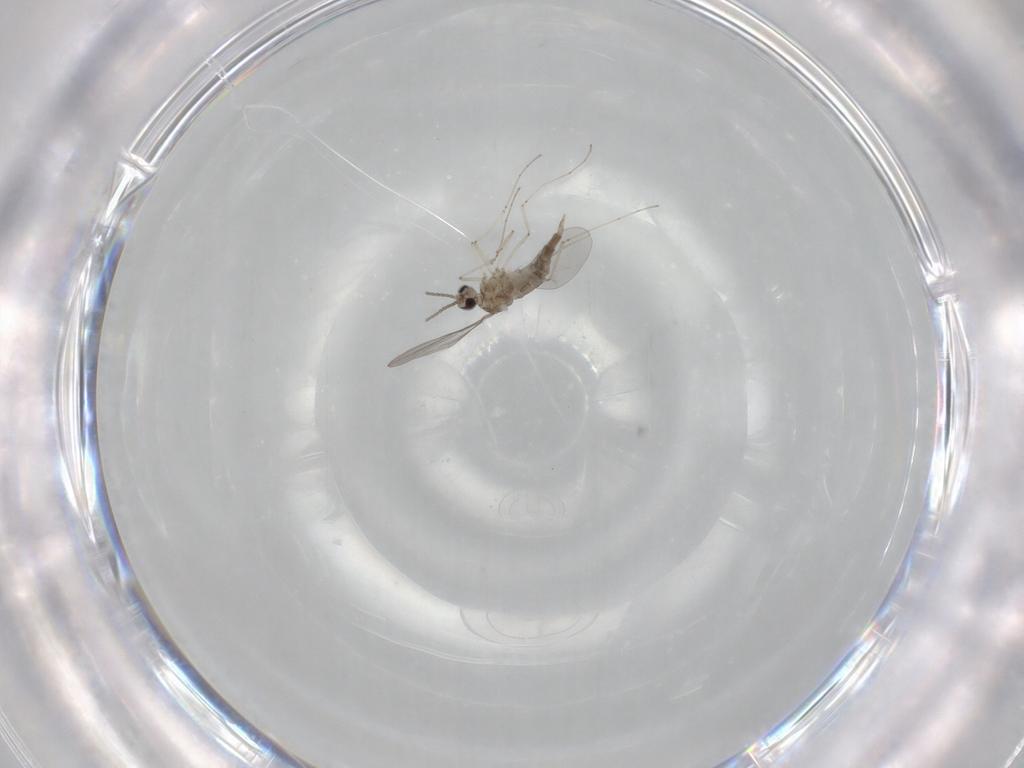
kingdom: Animalia
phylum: Arthropoda
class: Insecta
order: Diptera
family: Cecidomyiidae
